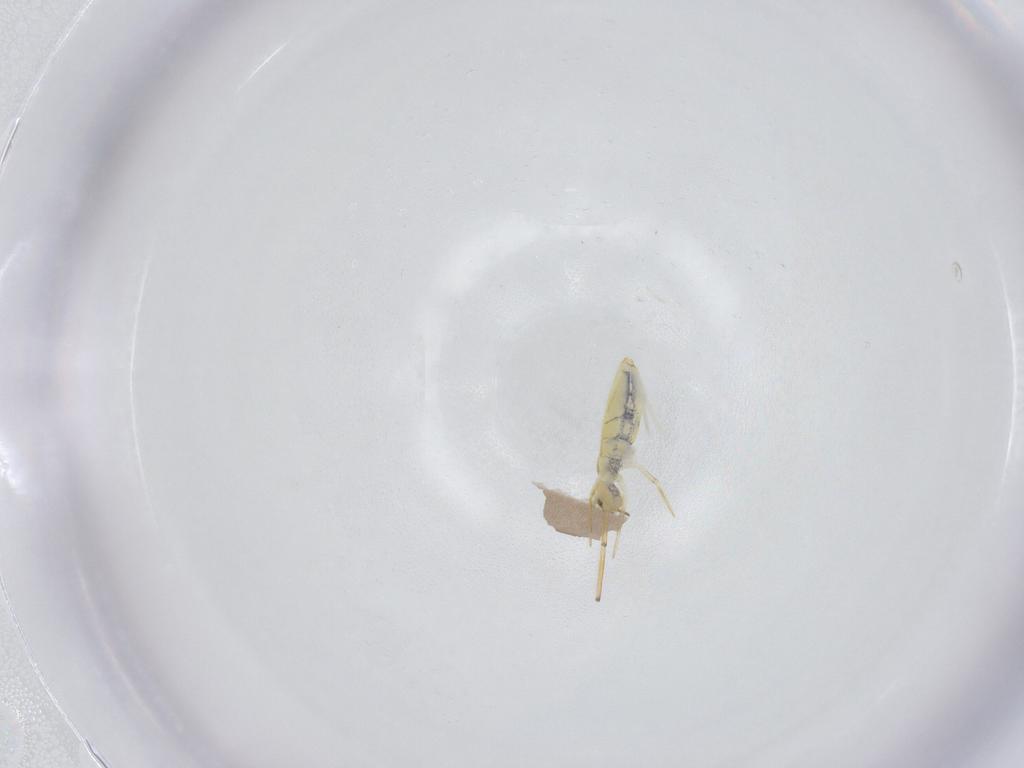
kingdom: Animalia
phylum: Arthropoda
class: Collembola
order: Entomobryomorpha
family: Paronellidae
